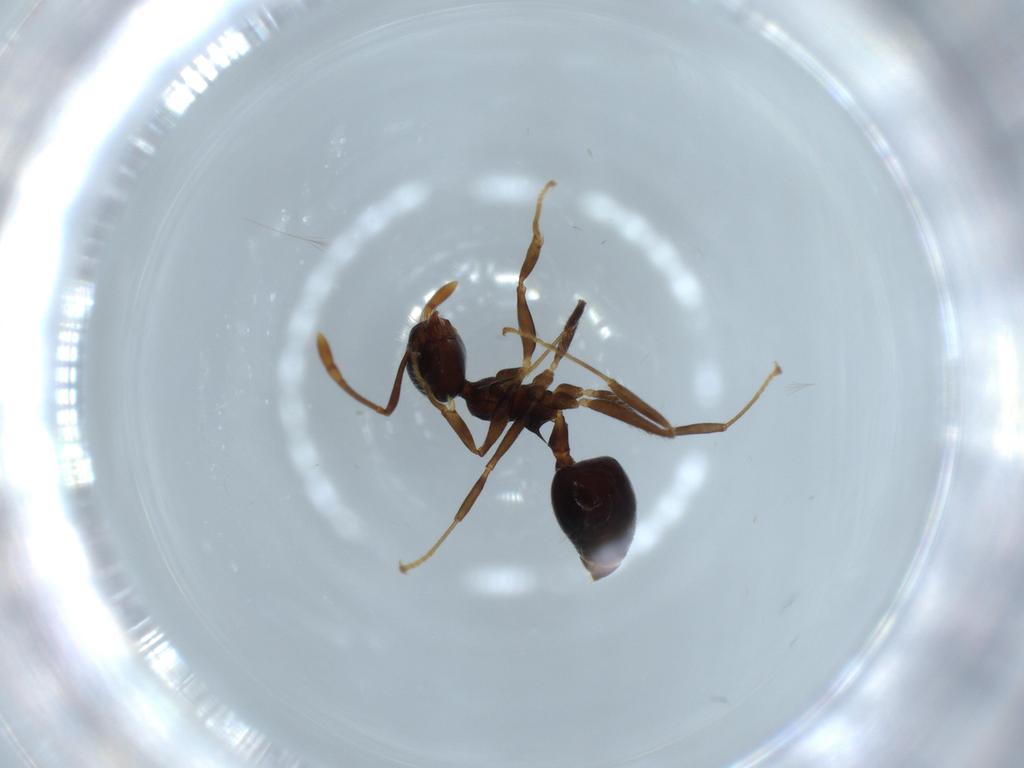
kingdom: Animalia
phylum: Arthropoda
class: Insecta
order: Hymenoptera
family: Formicidae
